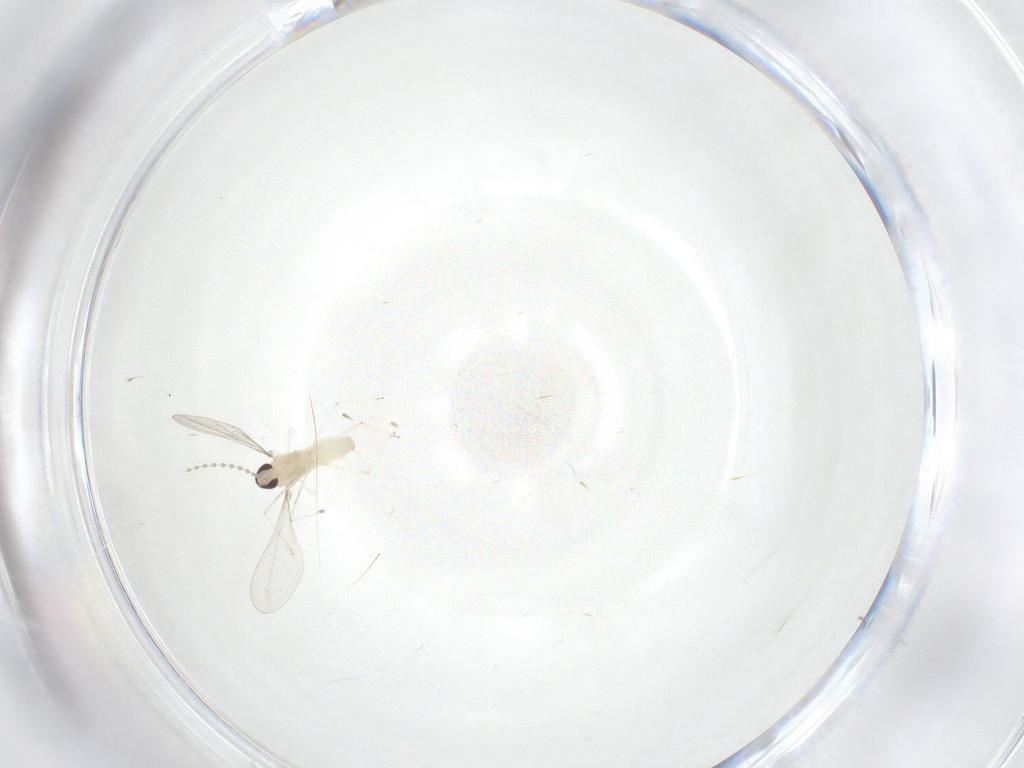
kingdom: Animalia
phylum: Arthropoda
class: Insecta
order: Diptera
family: Cecidomyiidae
